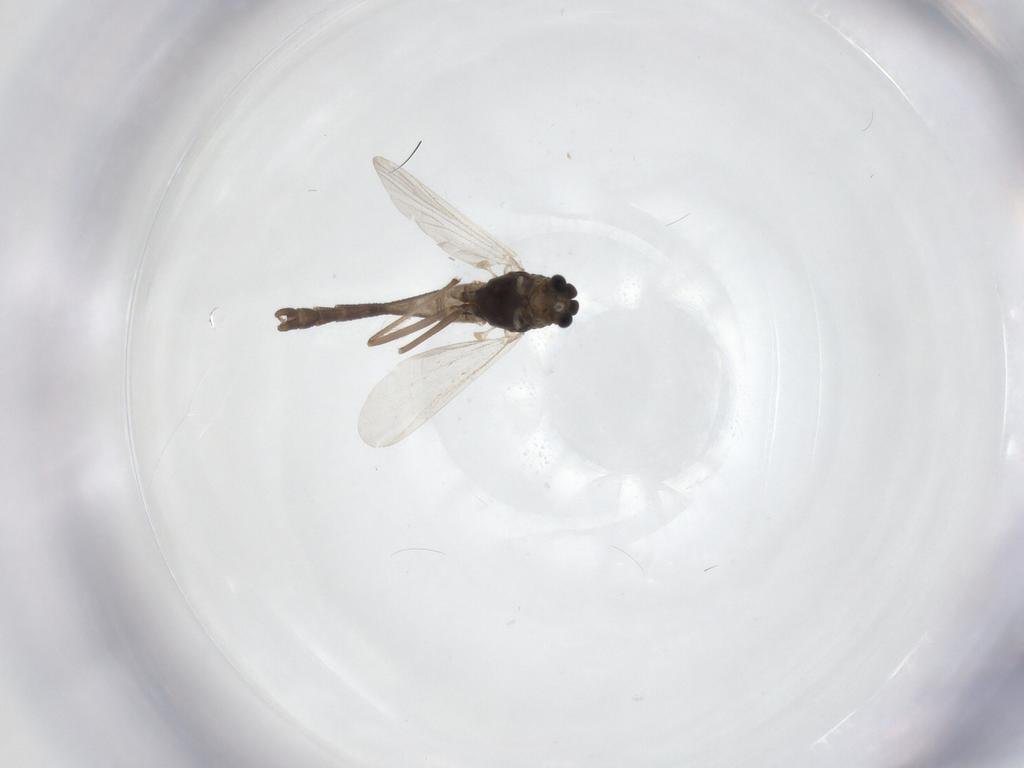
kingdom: Animalia
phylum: Arthropoda
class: Insecta
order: Diptera
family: Chironomidae
